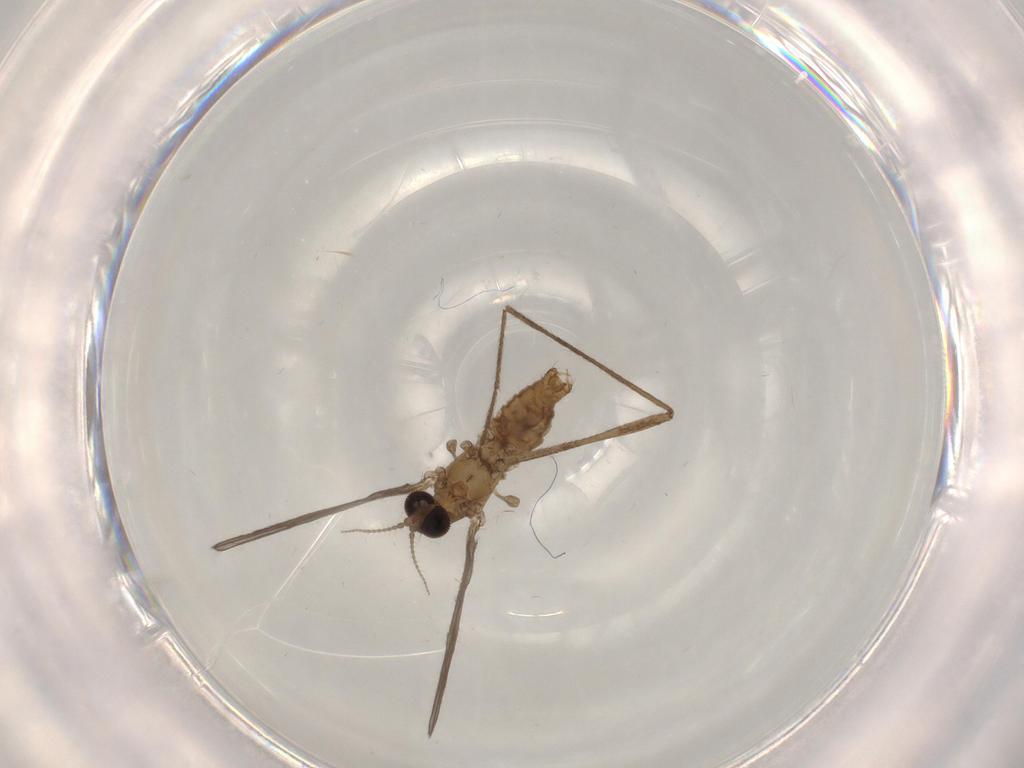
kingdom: Animalia
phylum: Arthropoda
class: Insecta
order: Diptera
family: Limoniidae
